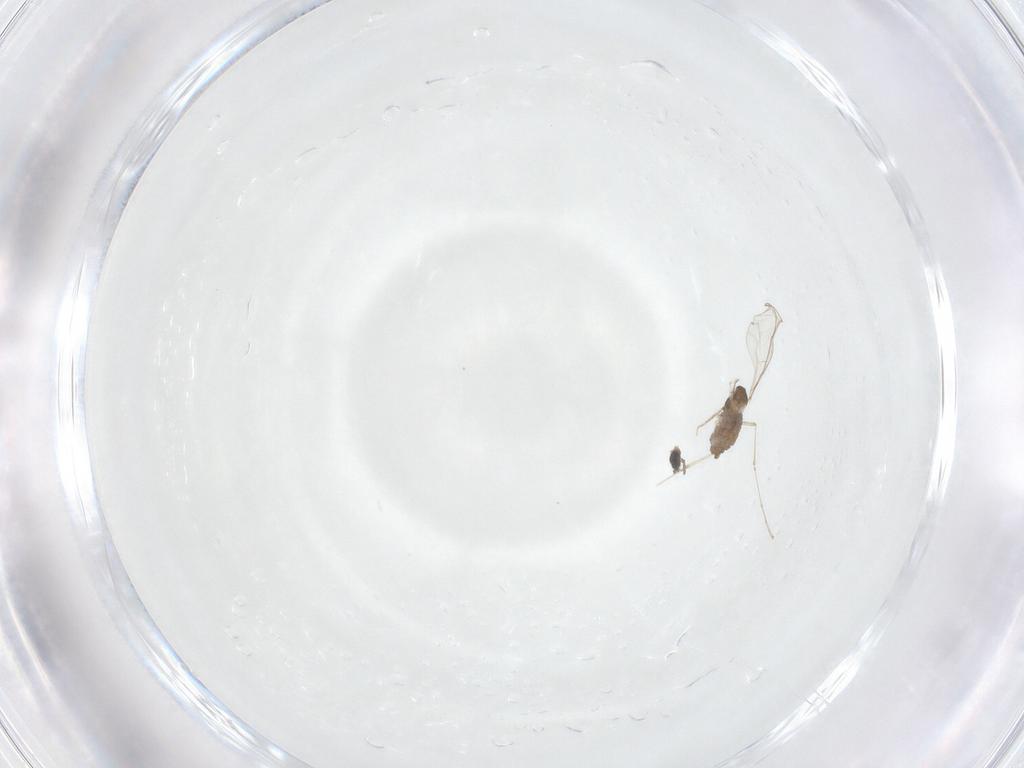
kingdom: Animalia
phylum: Arthropoda
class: Insecta
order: Diptera
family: Cecidomyiidae
